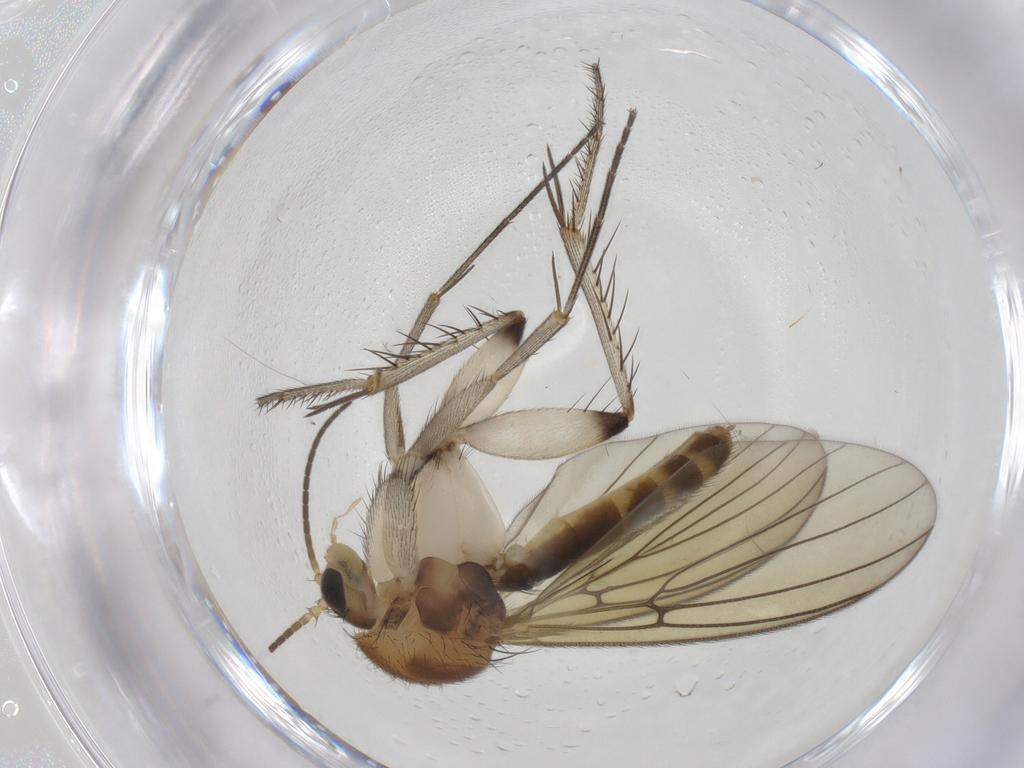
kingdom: Animalia
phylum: Arthropoda
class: Insecta
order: Diptera
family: Mycetophilidae
